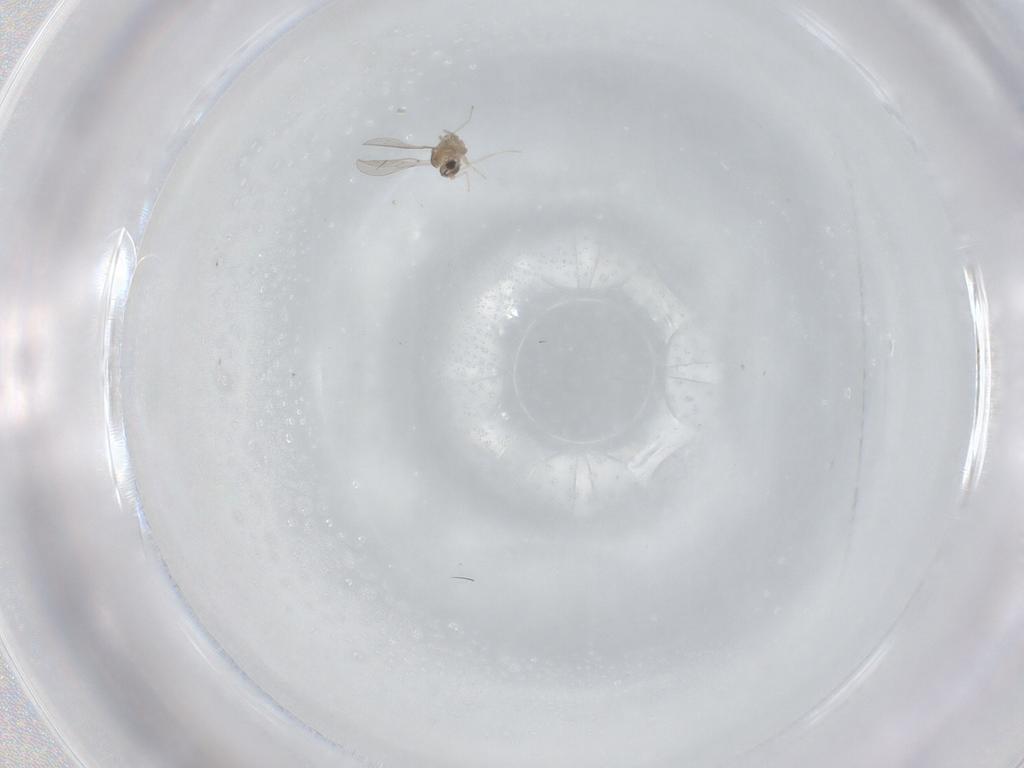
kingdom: Animalia
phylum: Arthropoda
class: Insecta
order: Diptera
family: Cecidomyiidae
